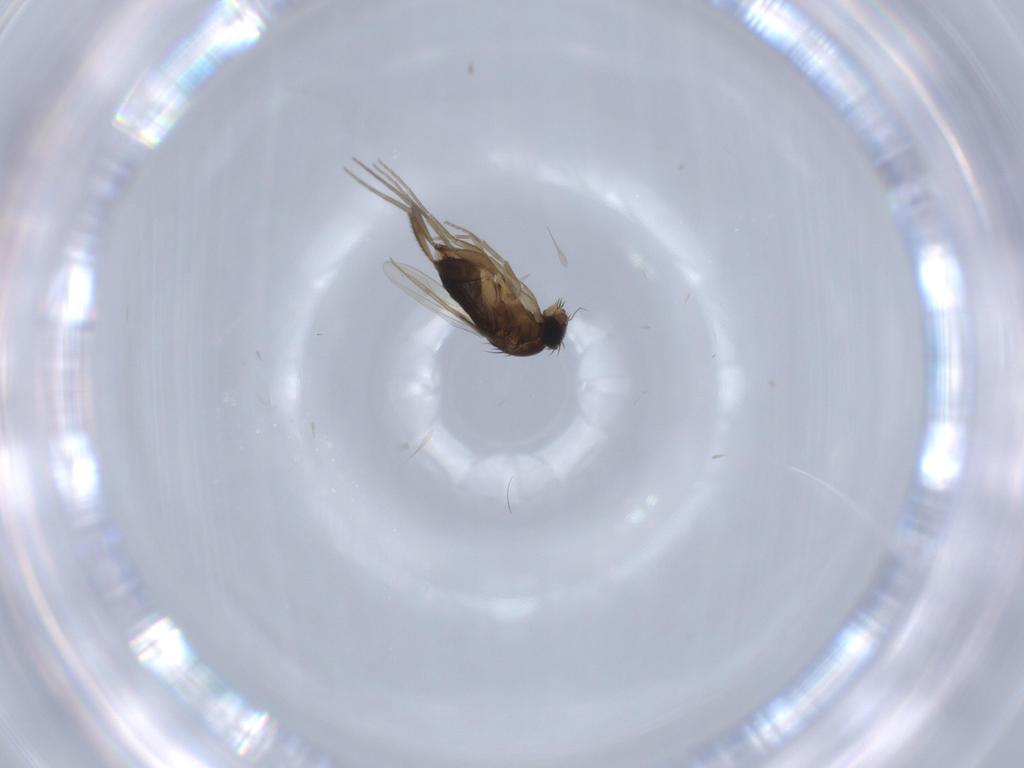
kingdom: Animalia
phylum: Arthropoda
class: Insecta
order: Diptera
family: Phoridae
